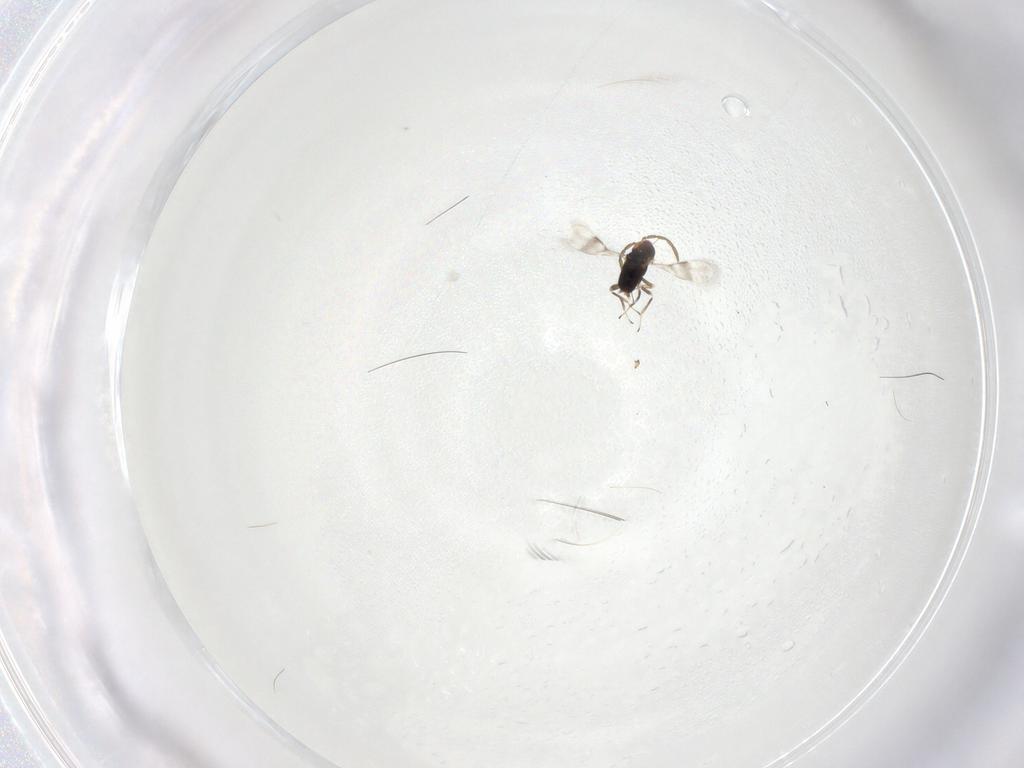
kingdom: Animalia
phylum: Arthropoda
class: Insecta
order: Hymenoptera
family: Azotidae
